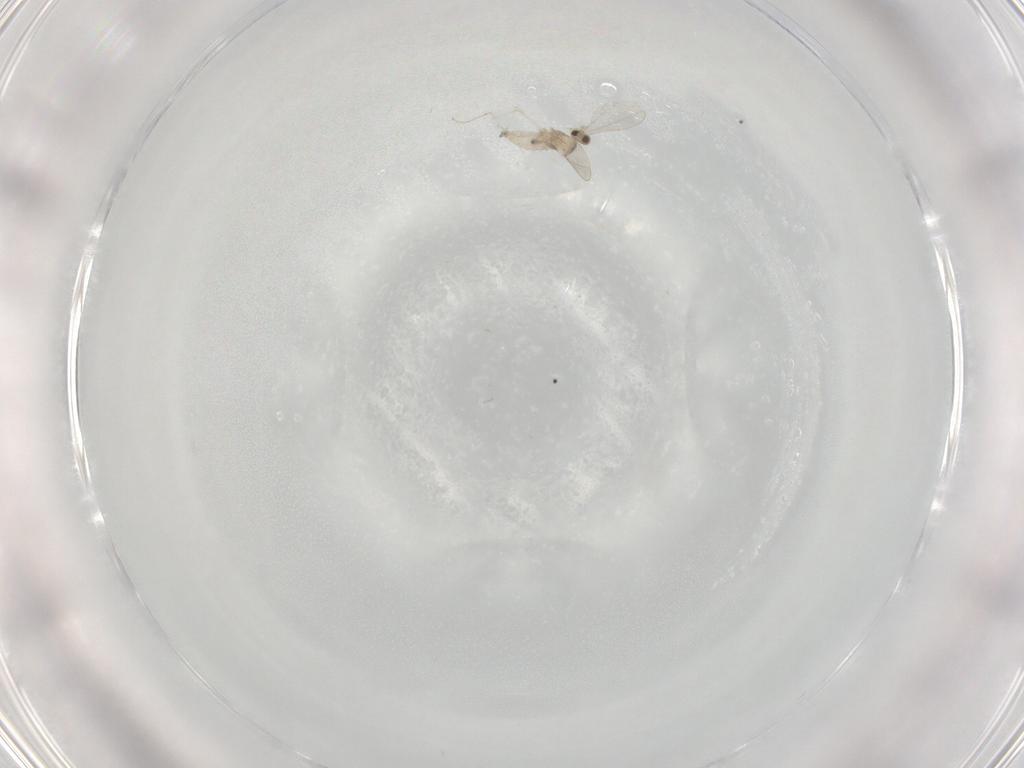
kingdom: Animalia
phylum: Arthropoda
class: Insecta
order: Diptera
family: Cecidomyiidae
